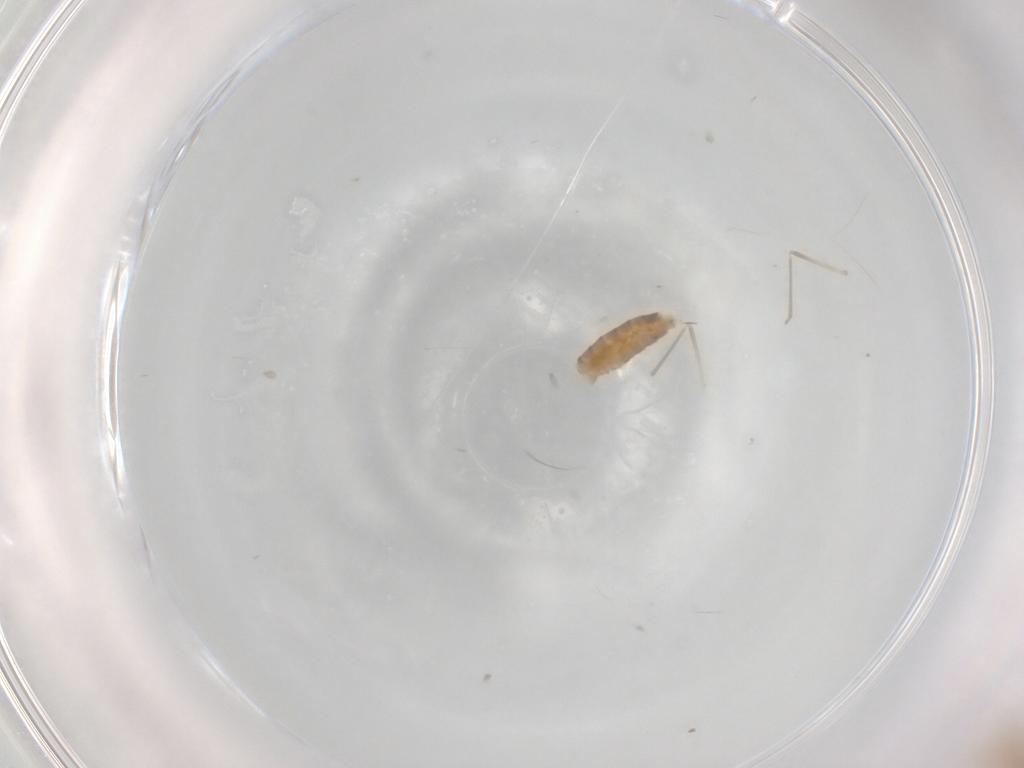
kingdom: Animalia
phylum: Arthropoda
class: Insecta
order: Diptera
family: Cecidomyiidae
